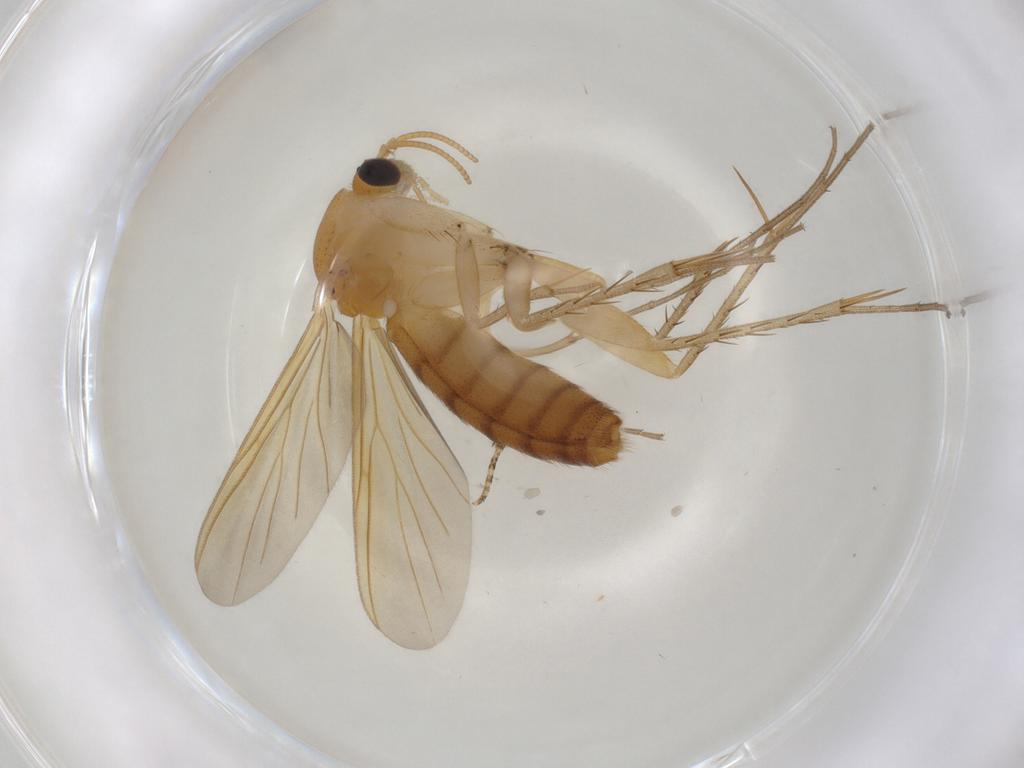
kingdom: Animalia
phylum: Arthropoda
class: Insecta
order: Diptera
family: Mycetophilidae
